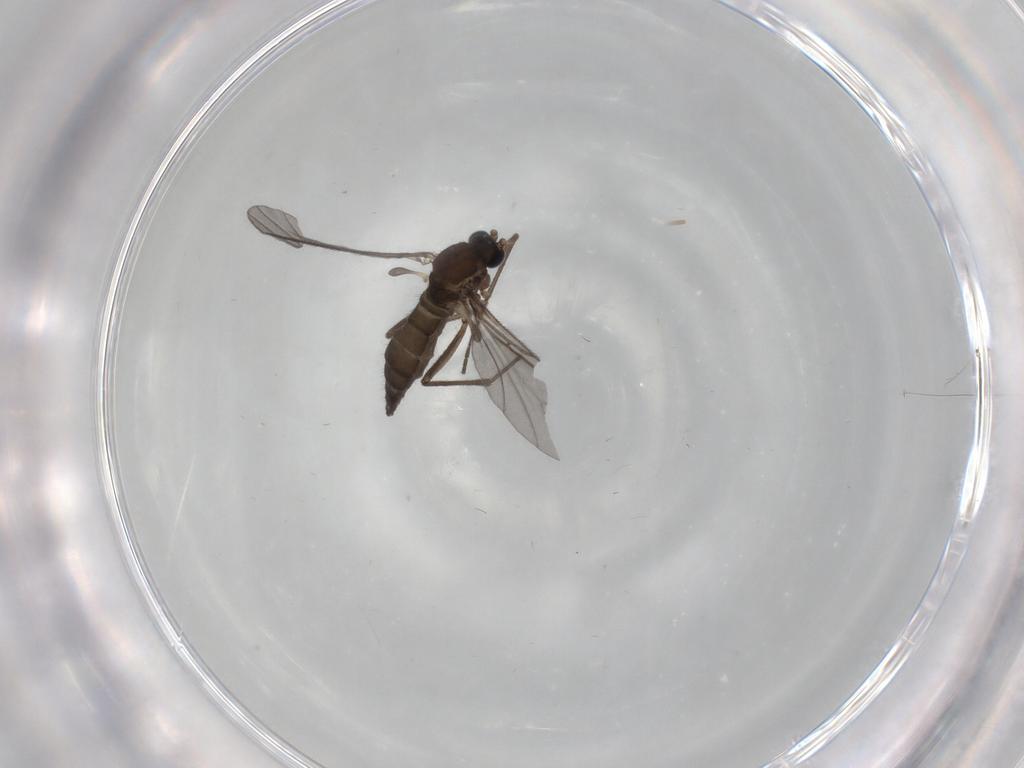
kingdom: Animalia
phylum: Arthropoda
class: Insecta
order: Diptera
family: Sciaridae
